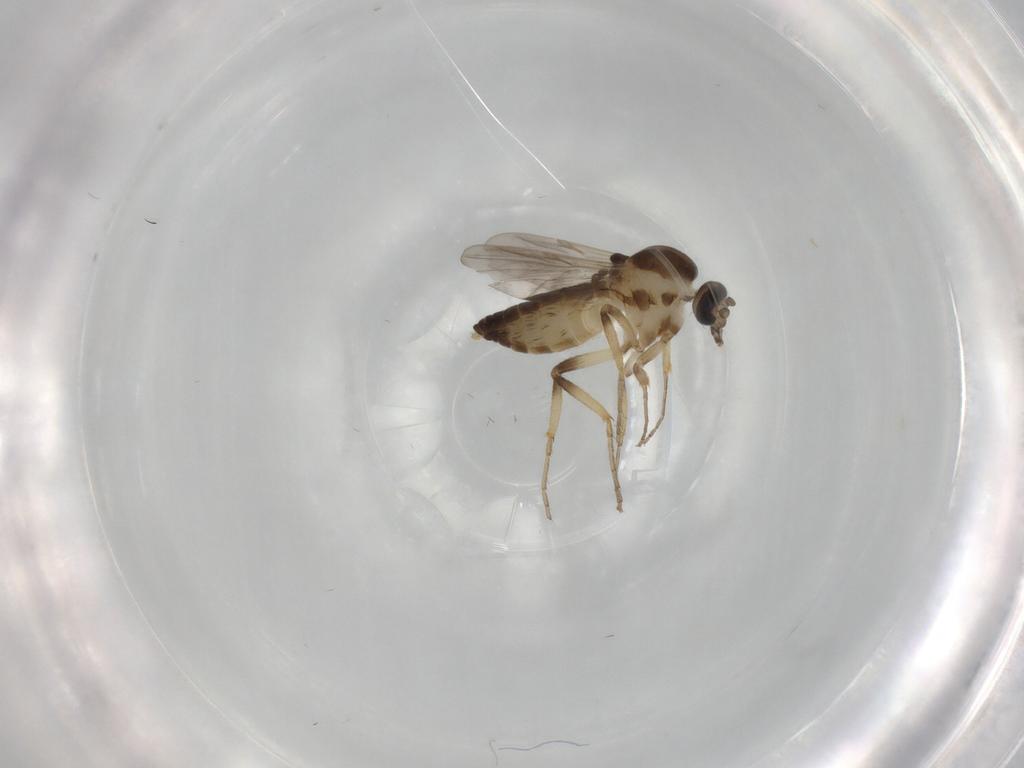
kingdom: Animalia
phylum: Arthropoda
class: Insecta
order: Diptera
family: Ceratopogonidae
